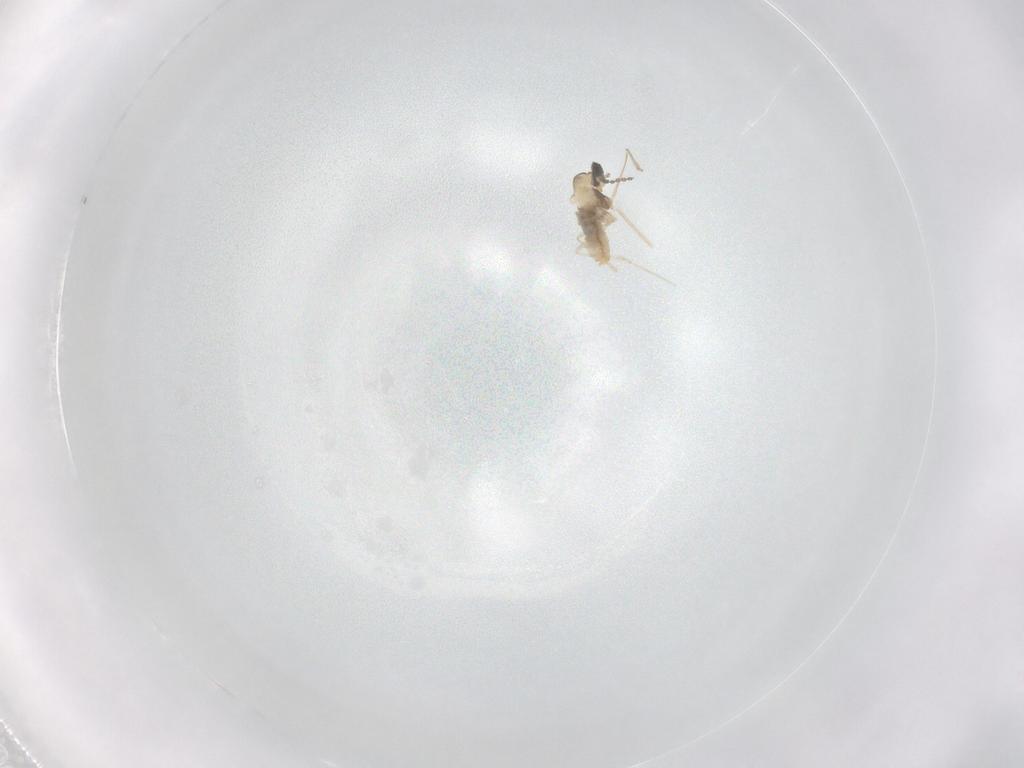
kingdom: Animalia
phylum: Arthropoda
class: Insecta
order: Diptera
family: Cecidomyiidae
